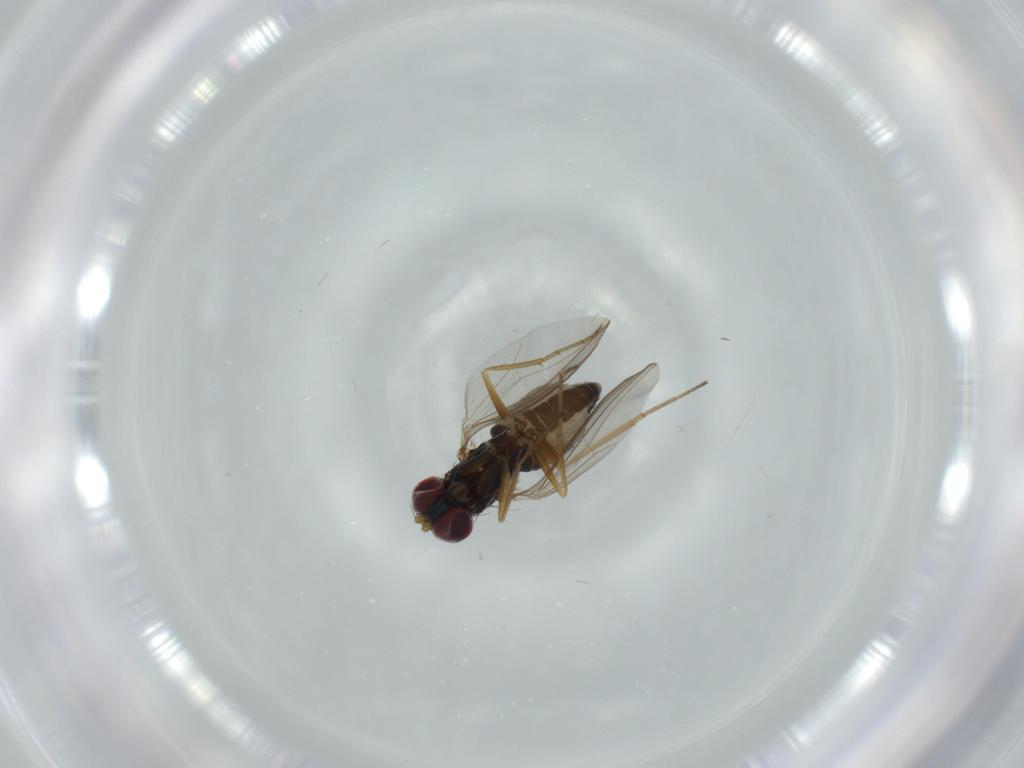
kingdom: Animalia
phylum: Arthropoda
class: Insecta
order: Diptera
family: Dolichopodidae
